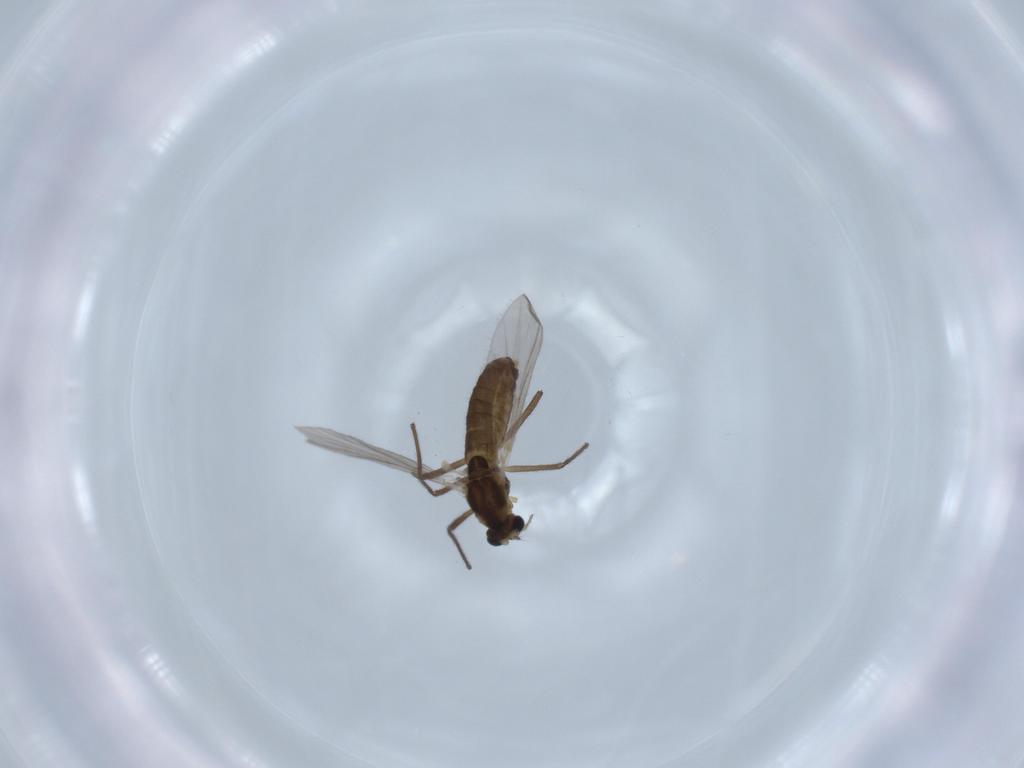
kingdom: Animalia
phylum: Arthropoda
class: Insecta
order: Diptera
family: Chironomidae
